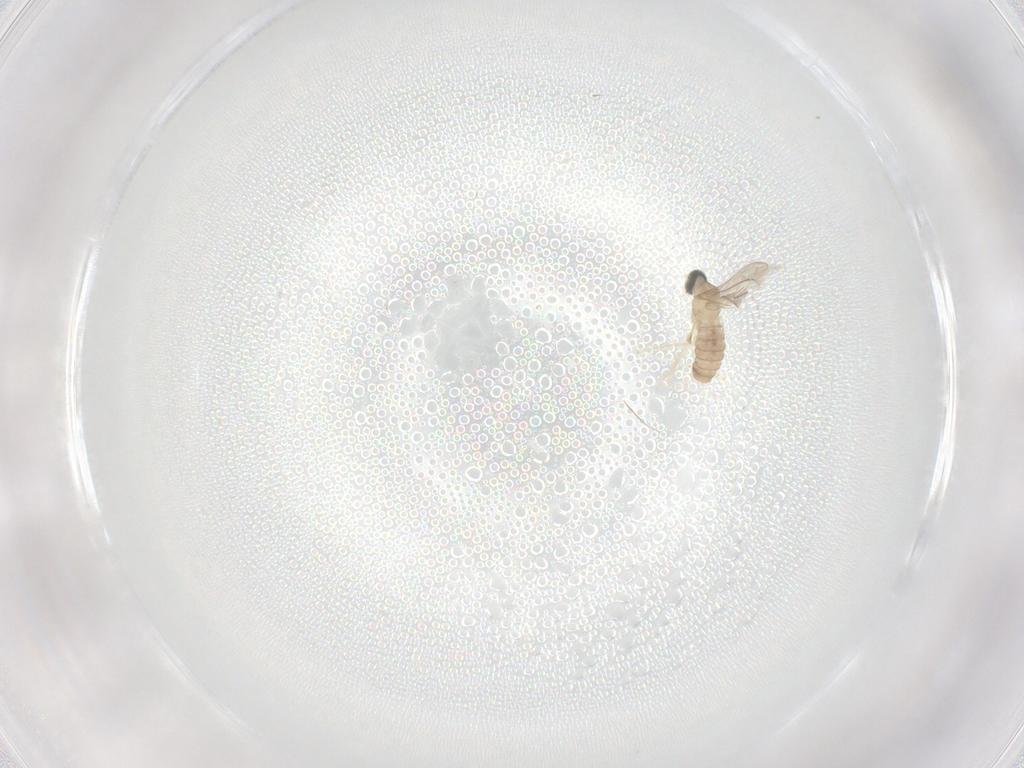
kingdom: Animalia
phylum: Arthropoda
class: Insecta
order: Diptera
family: Cecidomyiidae
